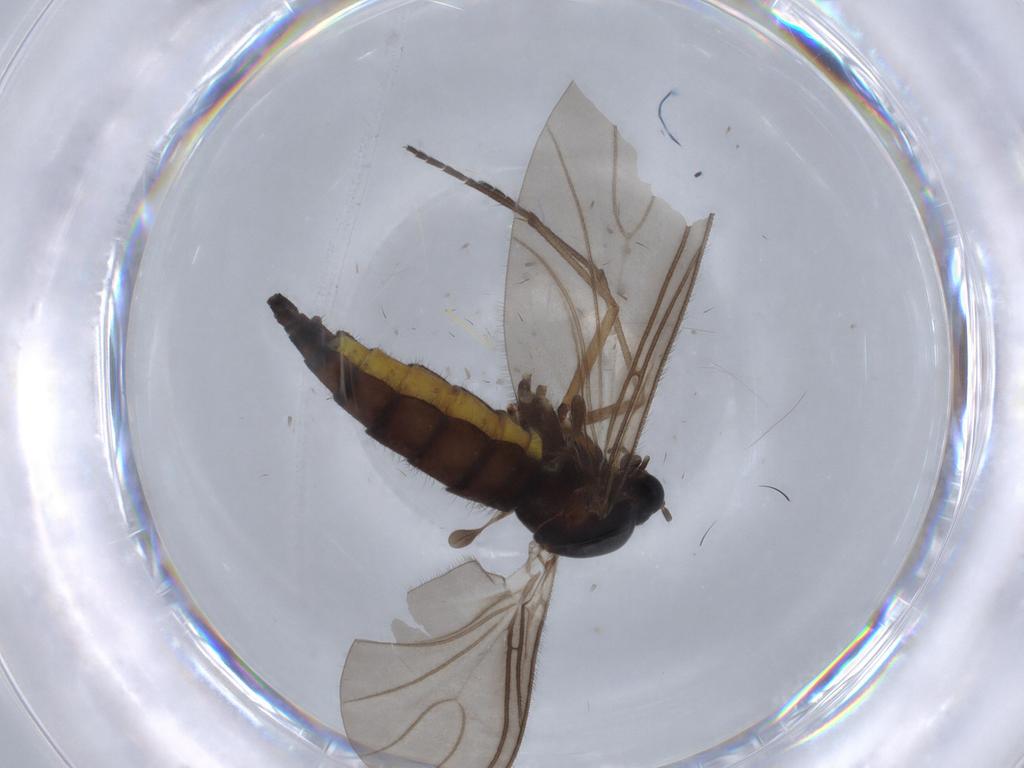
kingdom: Animalia
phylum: Arthropoda
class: Insecta
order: Diptera
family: Sciaridae
